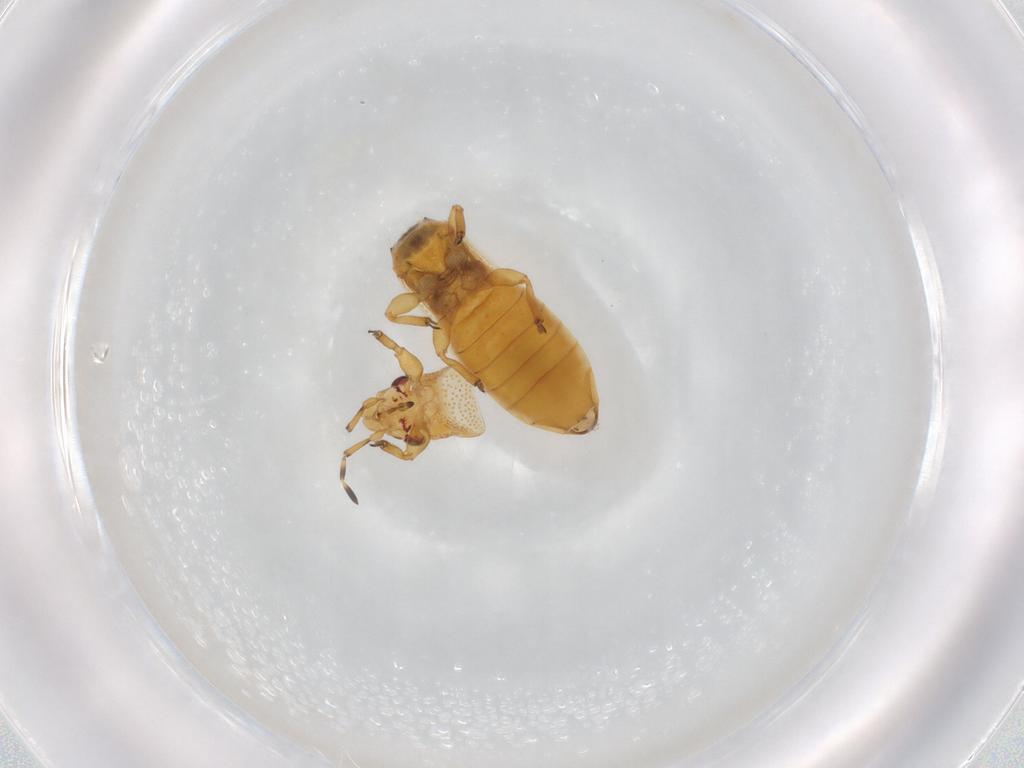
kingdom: Animalia
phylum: Arthropoda
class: Insecta
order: Hemiptera
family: Thaumastocoridae
